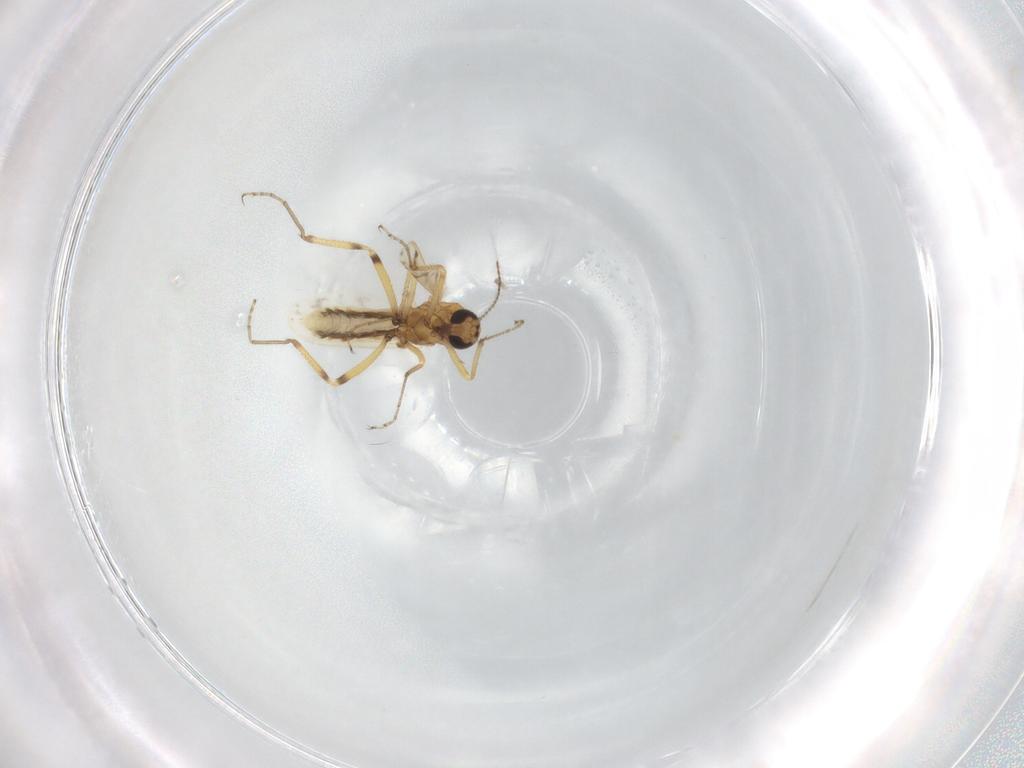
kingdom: Animalia
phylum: Arthropoda
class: Insecta
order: Diptera
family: Ceratopogonidae
